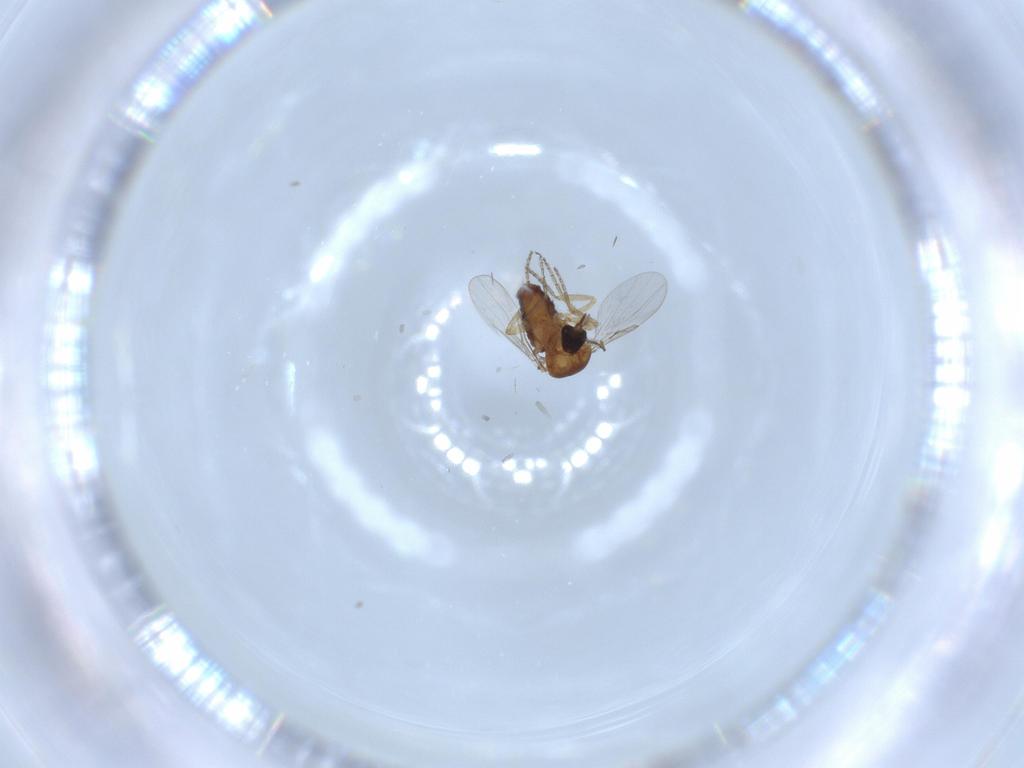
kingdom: Animalia
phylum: Arthropoda
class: Insecta
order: Diptera
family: Ceratopogonidae
